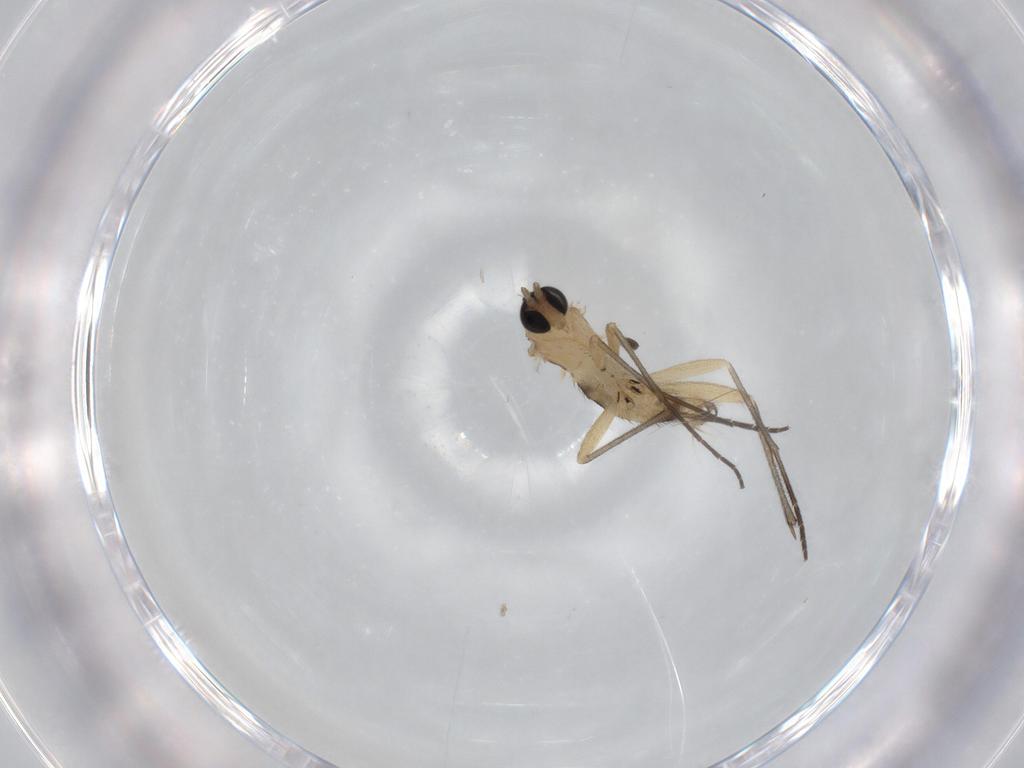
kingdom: Animalia
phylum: Arthropoda
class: Insecta
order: Diptera
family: Sciaridae
